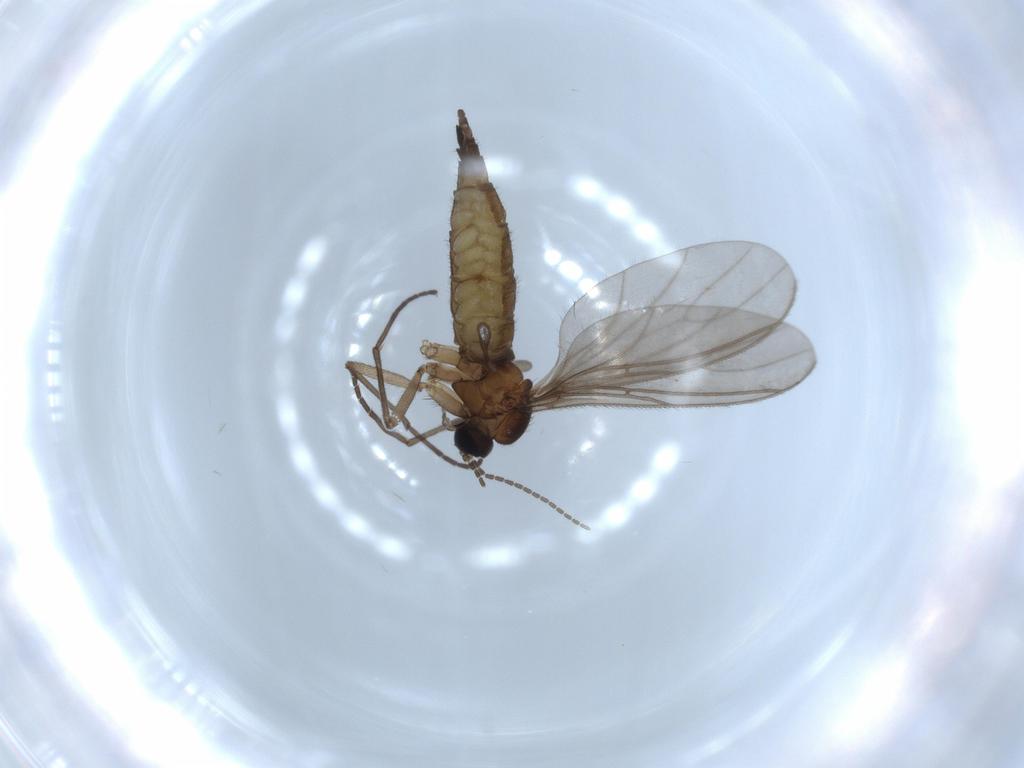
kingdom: Animalia
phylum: Arthropoda
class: Insecta
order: Diptera
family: Sciaridae
